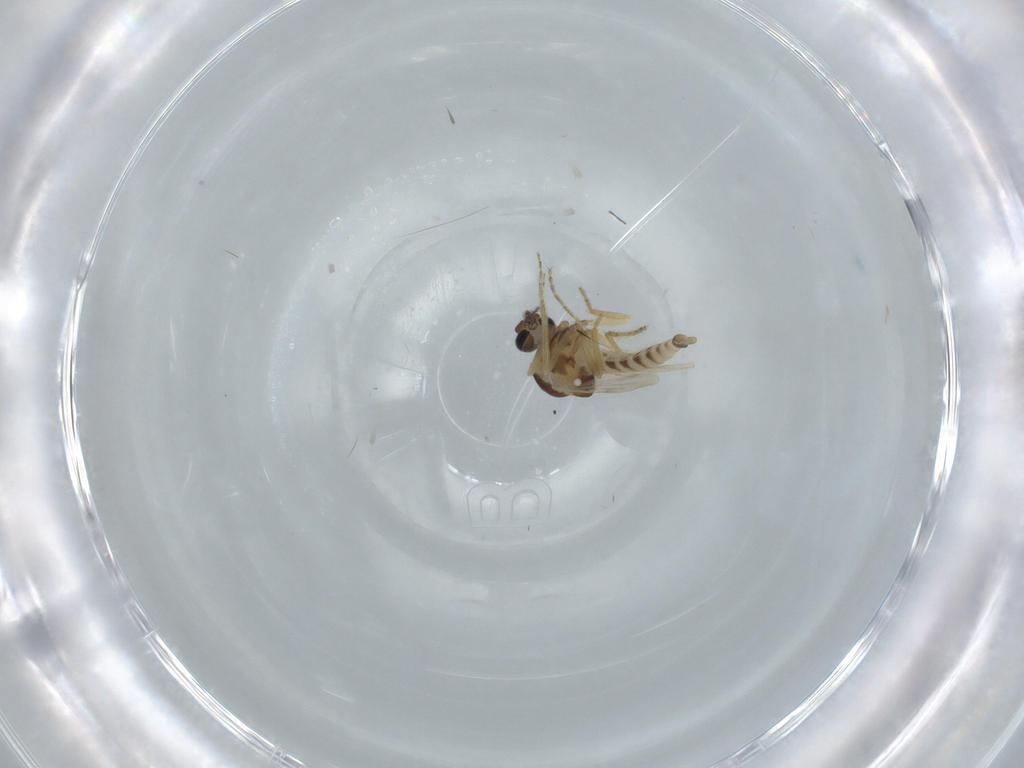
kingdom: Animalia
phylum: Arthropoda
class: Insecta
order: Diptera
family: Ceratopogonidae
